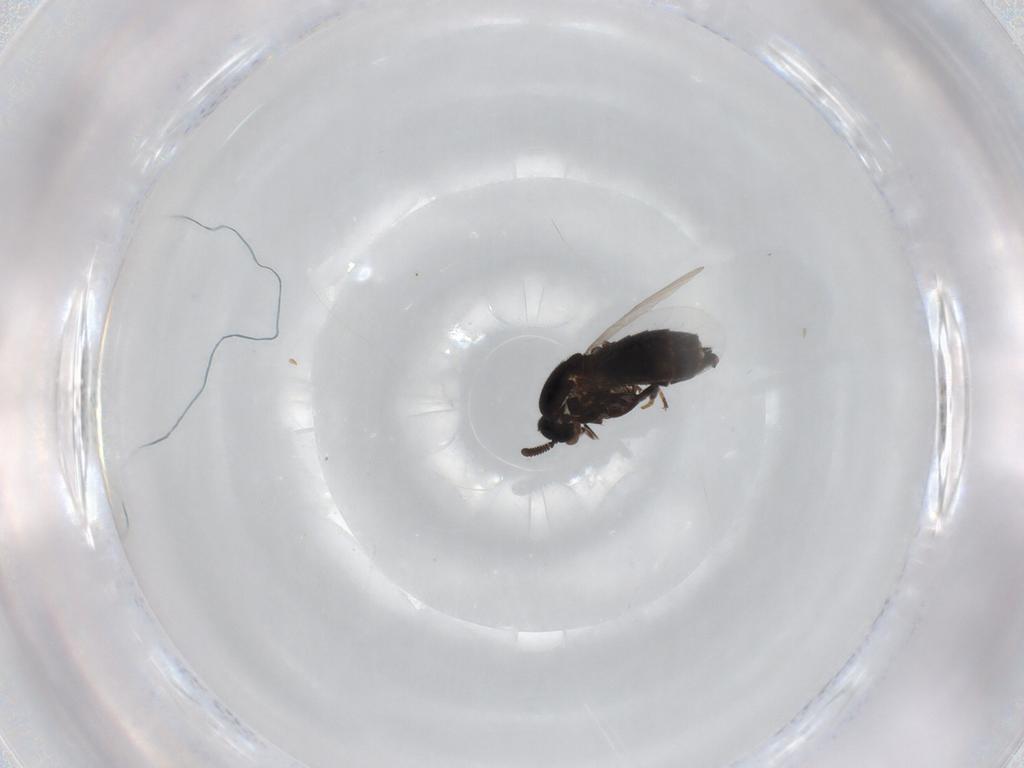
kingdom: Animalia
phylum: Arthropoda
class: Insecta
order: Diptera
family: Scatopsidae
